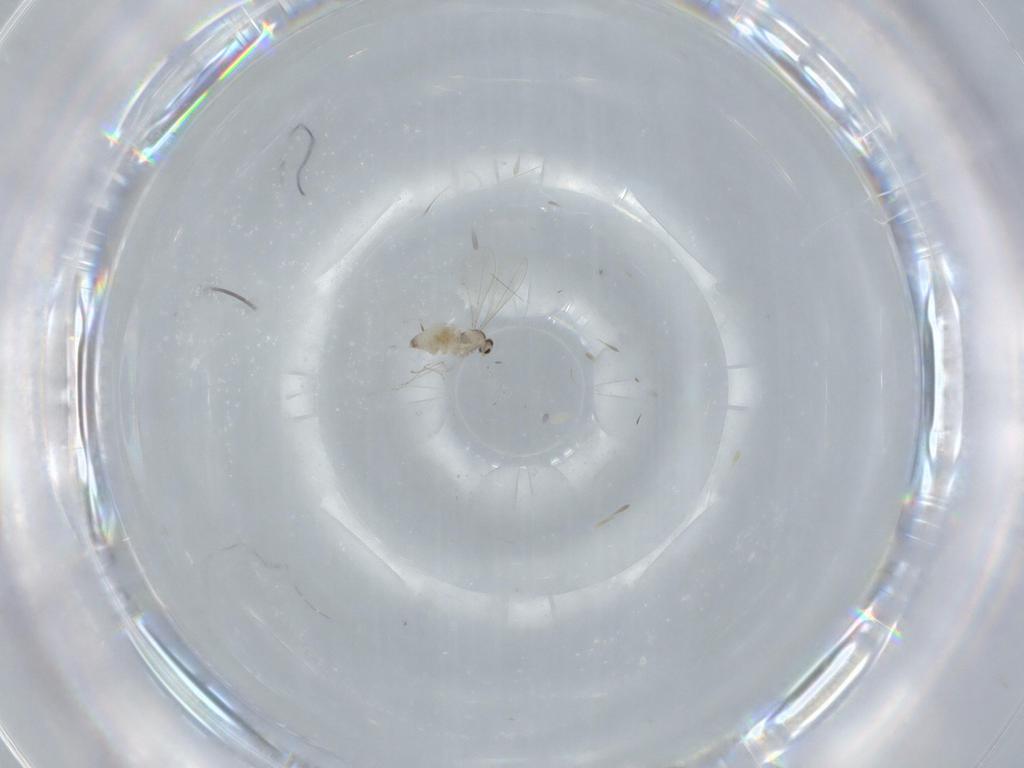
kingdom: Animalia
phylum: Arthropoda
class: Insecta
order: Diptera
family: Cecidomyiidae
